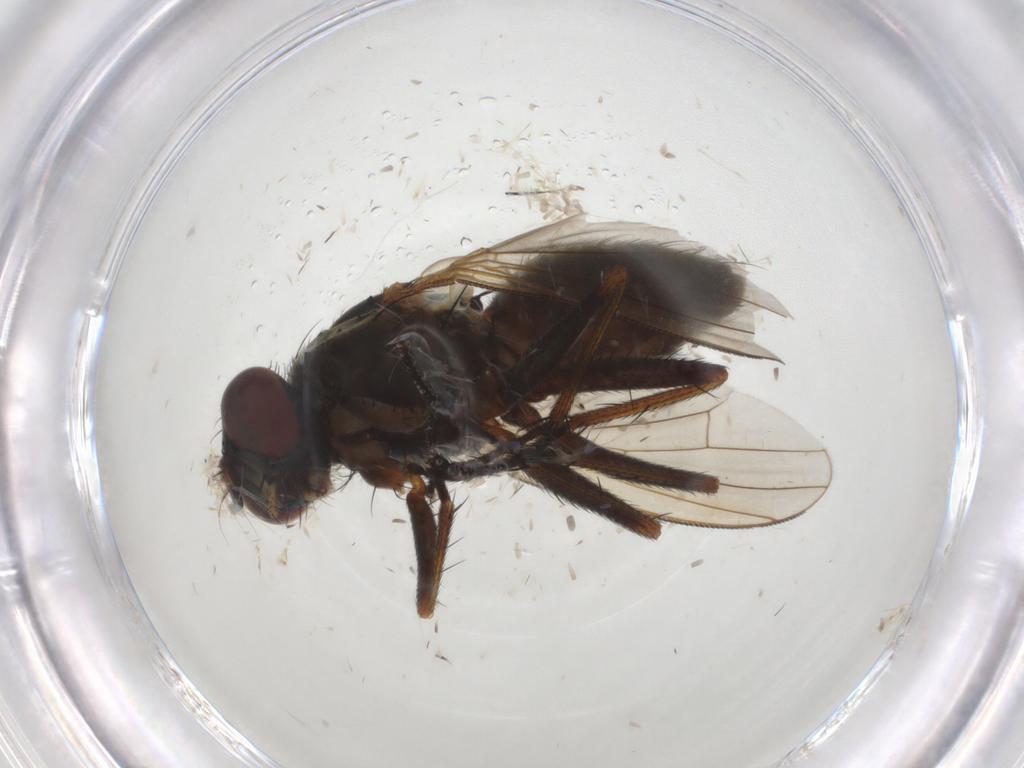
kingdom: Animalia
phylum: Arthropoda
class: Insecta
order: Diptera
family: Muscidae
